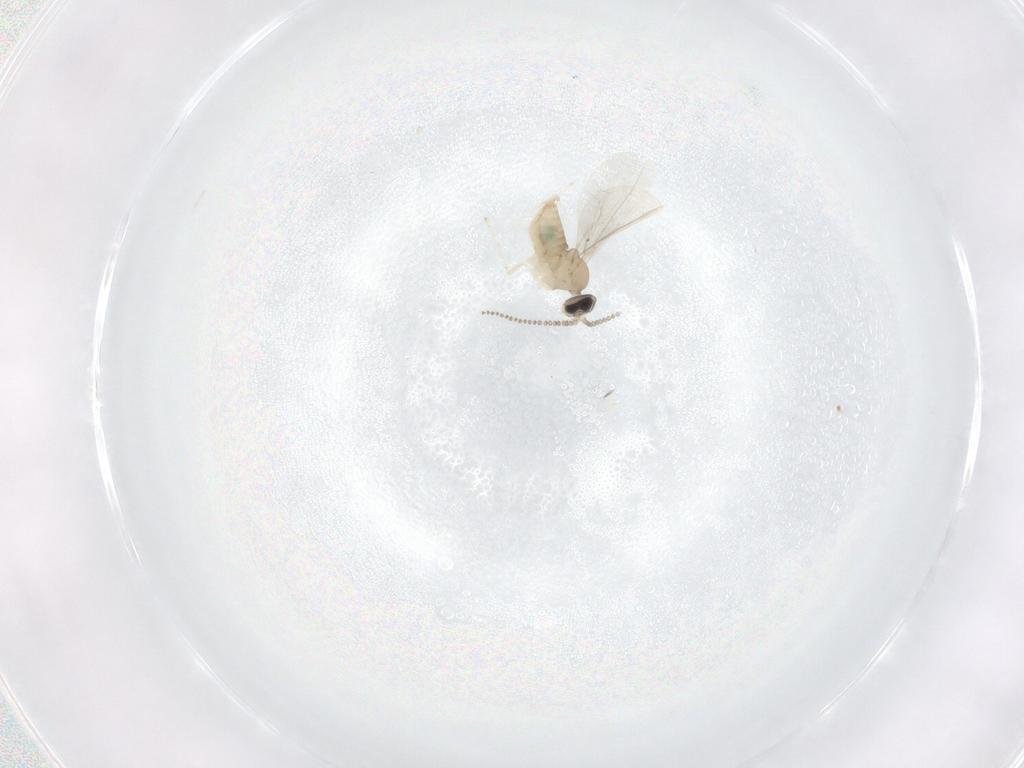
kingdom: Animalia
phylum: Arthropoda
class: Insecta
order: Diptera
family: Cecidomyiidae
